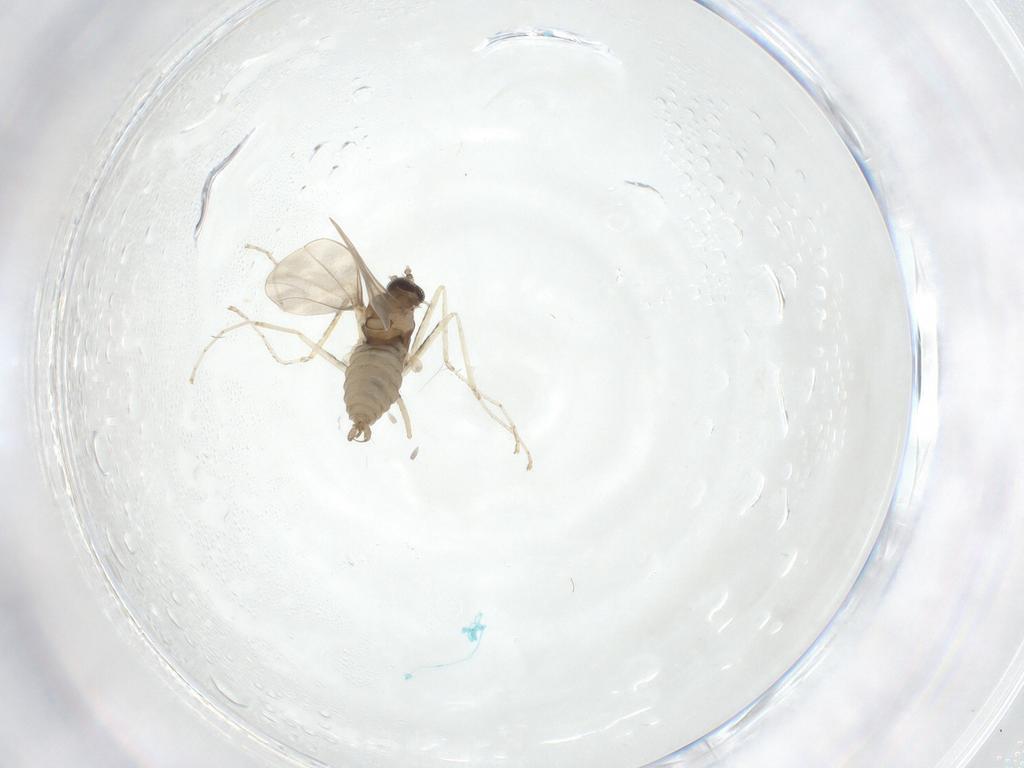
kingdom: Animalia
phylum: Arthropoda
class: Insecta
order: Diptera
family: Cecidomyiidae
